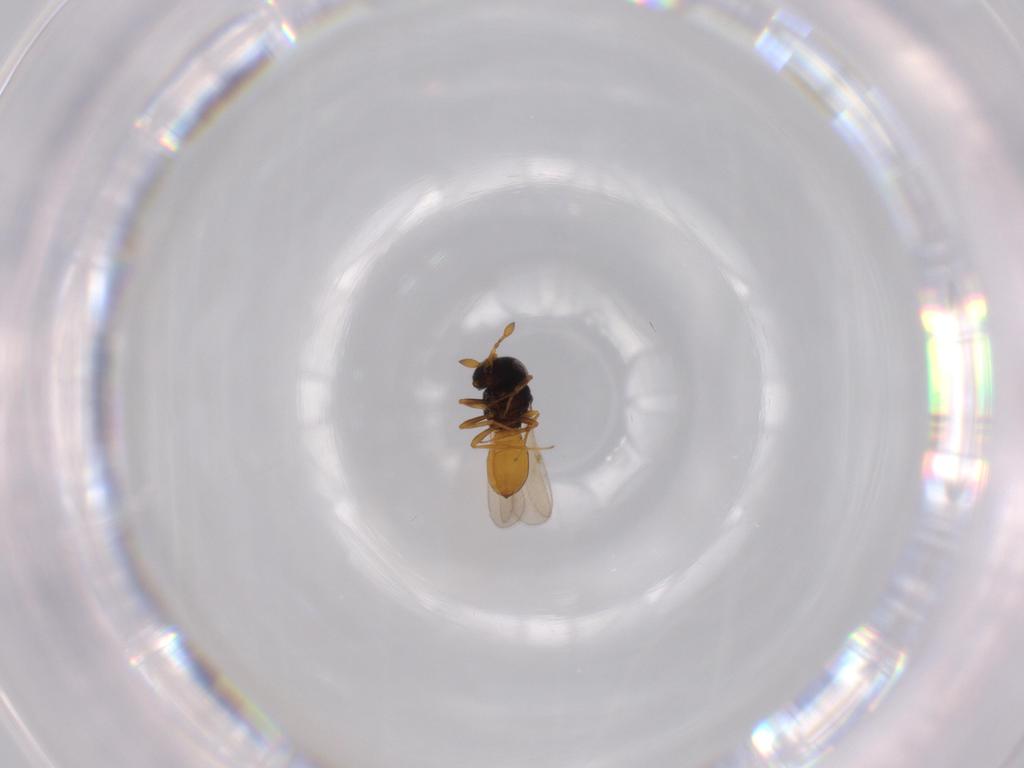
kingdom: Animalia
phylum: Arthropoda
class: Insecta
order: Hymenoptera
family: Scelionidae
